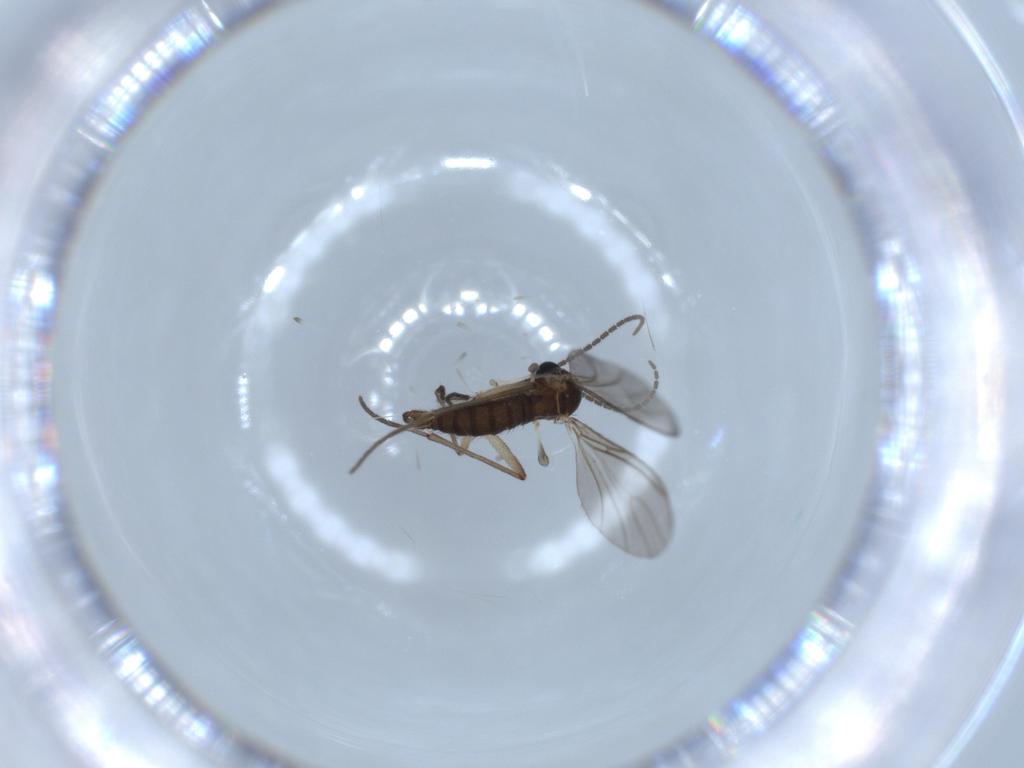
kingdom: Animalia
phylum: Arthropoda
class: Insecta
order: Diptera
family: Sciaridae
